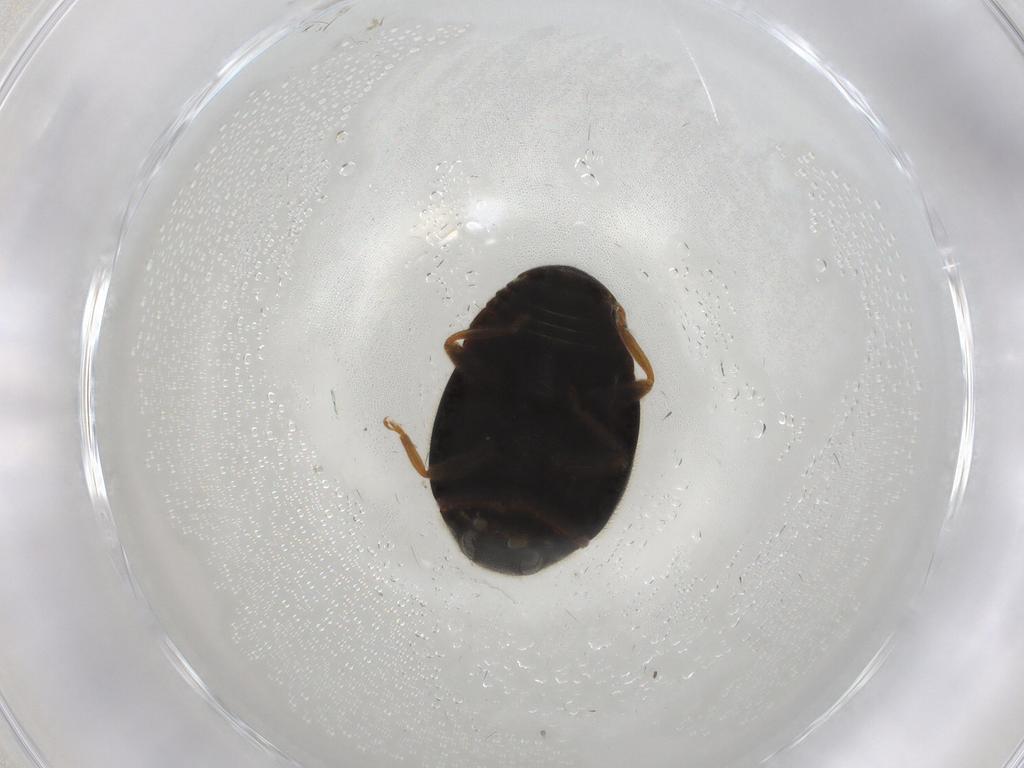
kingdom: Animalia
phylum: Arthropoda
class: Insecta
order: Coleoptera
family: Coccinellidae
